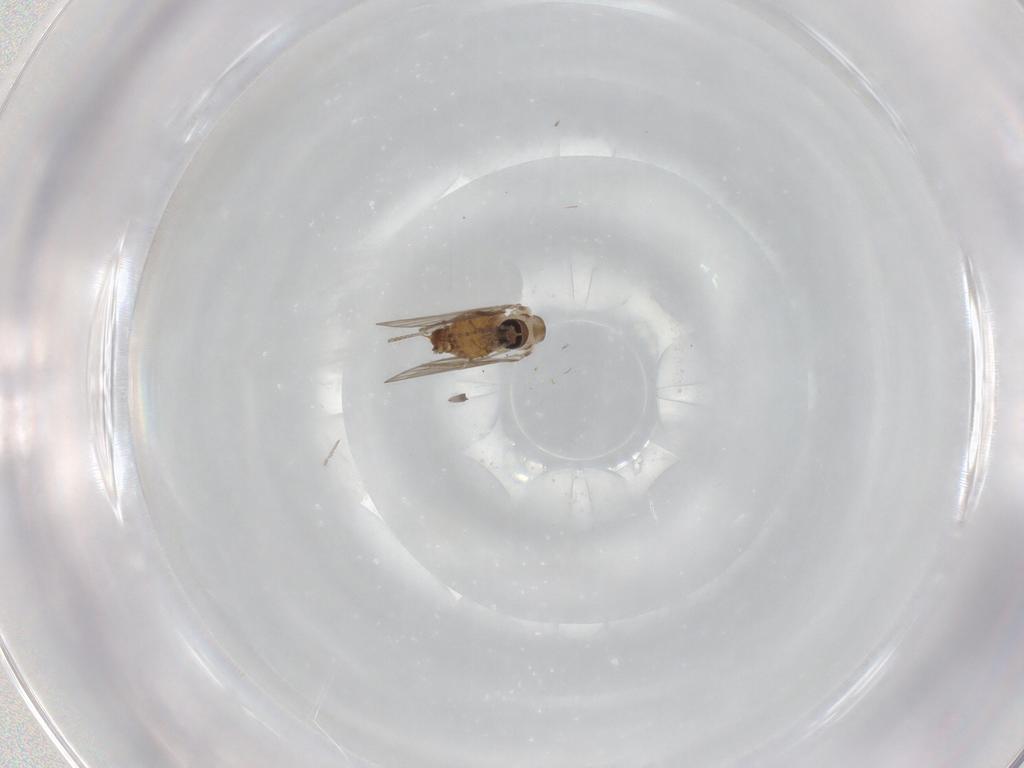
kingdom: Animalia
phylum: Arthropoda
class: Insecta
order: Diptera
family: Psychodidae
